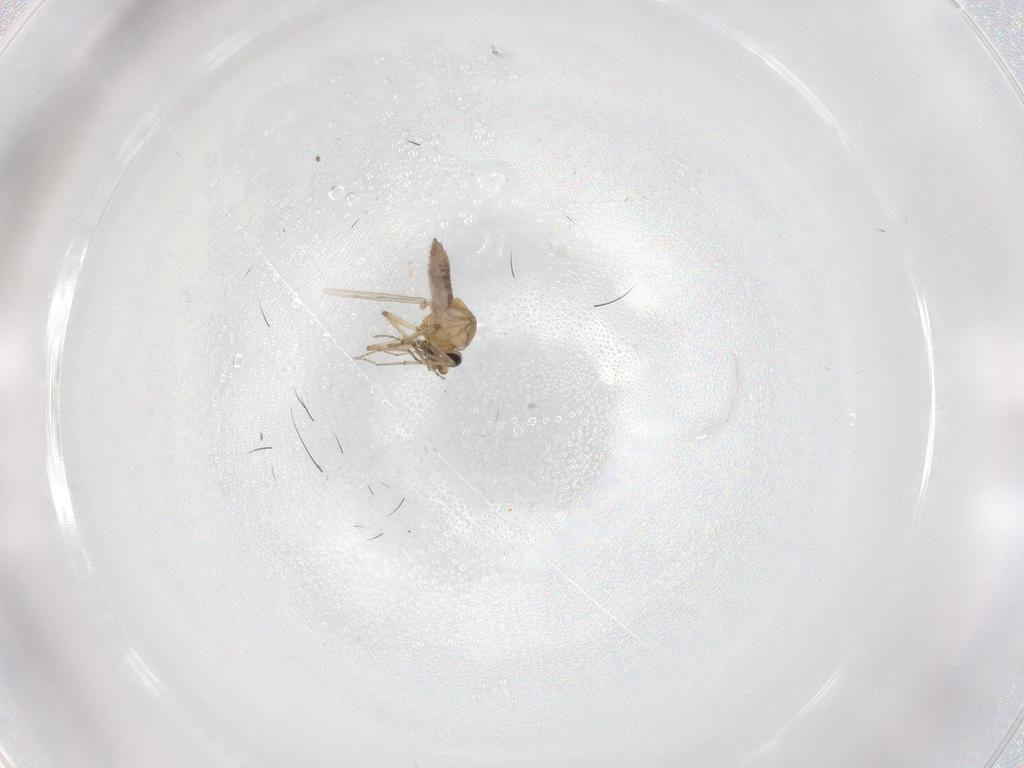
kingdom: Animalia
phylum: Arthropoda
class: Insecta
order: Diptera
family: Ceratopogonidae
